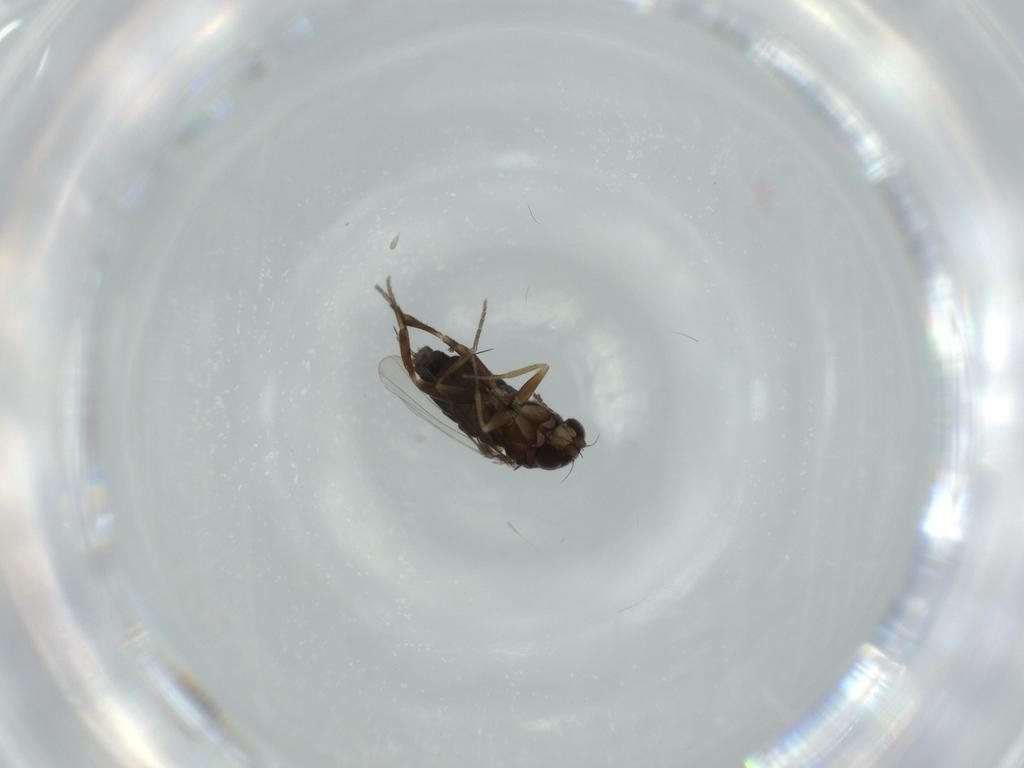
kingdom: Animalia
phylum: Arthropoda
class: Insecta
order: Diptera
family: Phoridae
